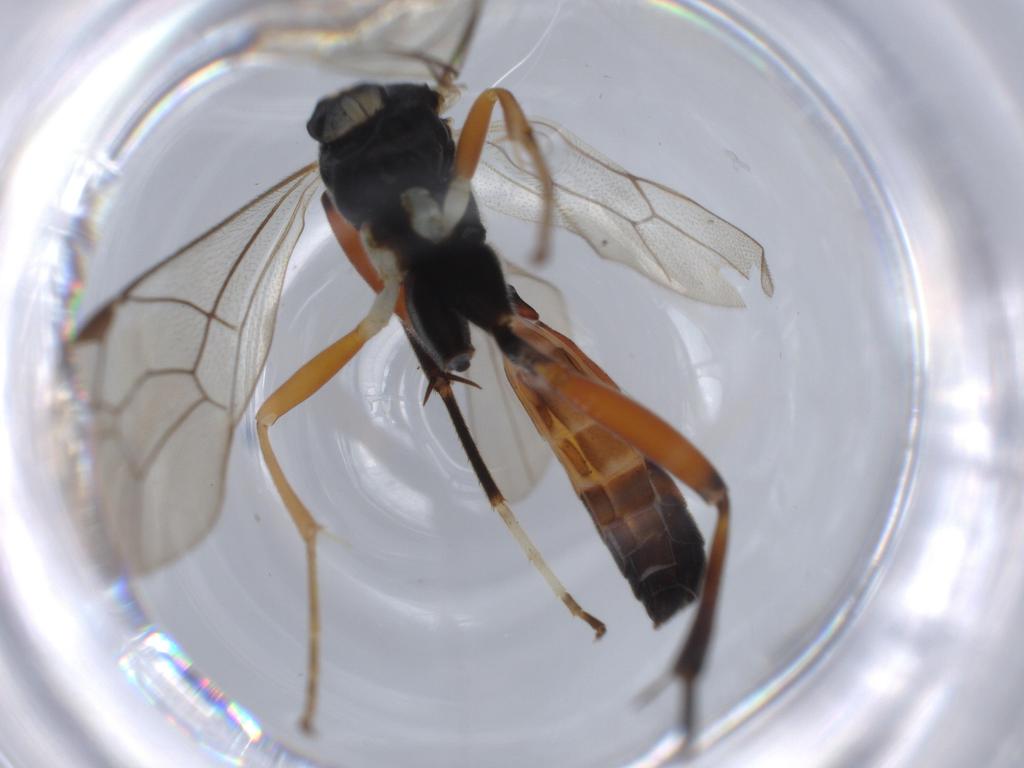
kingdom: Animalia
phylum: Arthropoda
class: Insecta
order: Hymenoptera
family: Ichneumonidae
